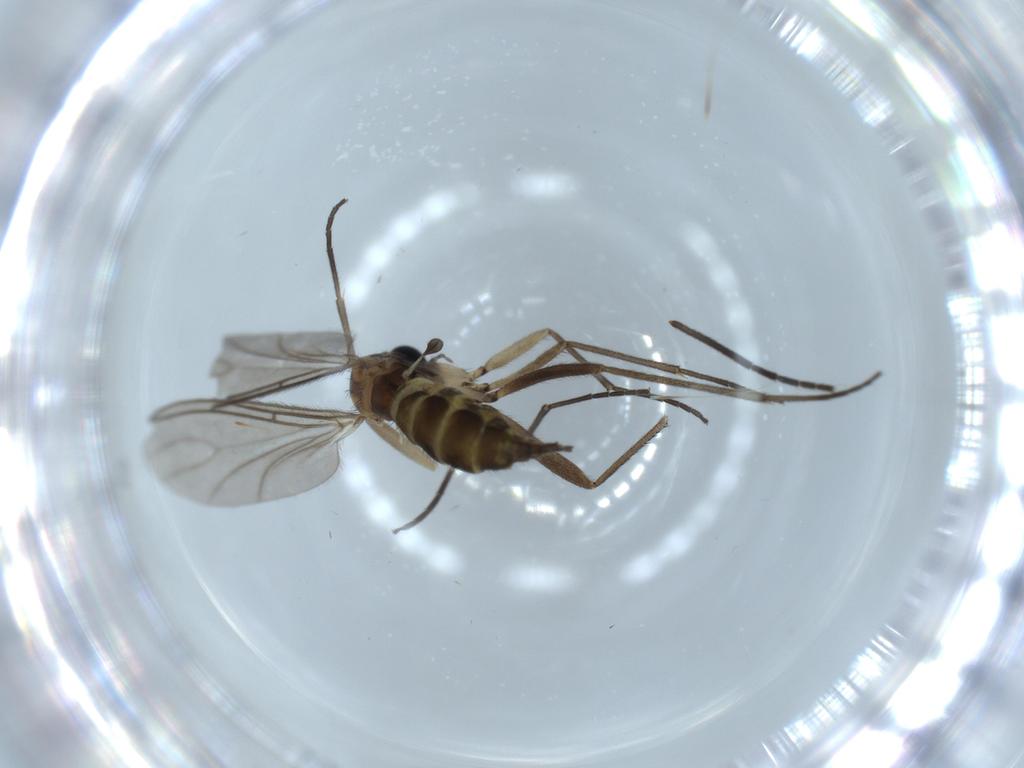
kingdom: Animalia
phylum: Arthropoda
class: Insecta
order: Diptera
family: Sciaridae
